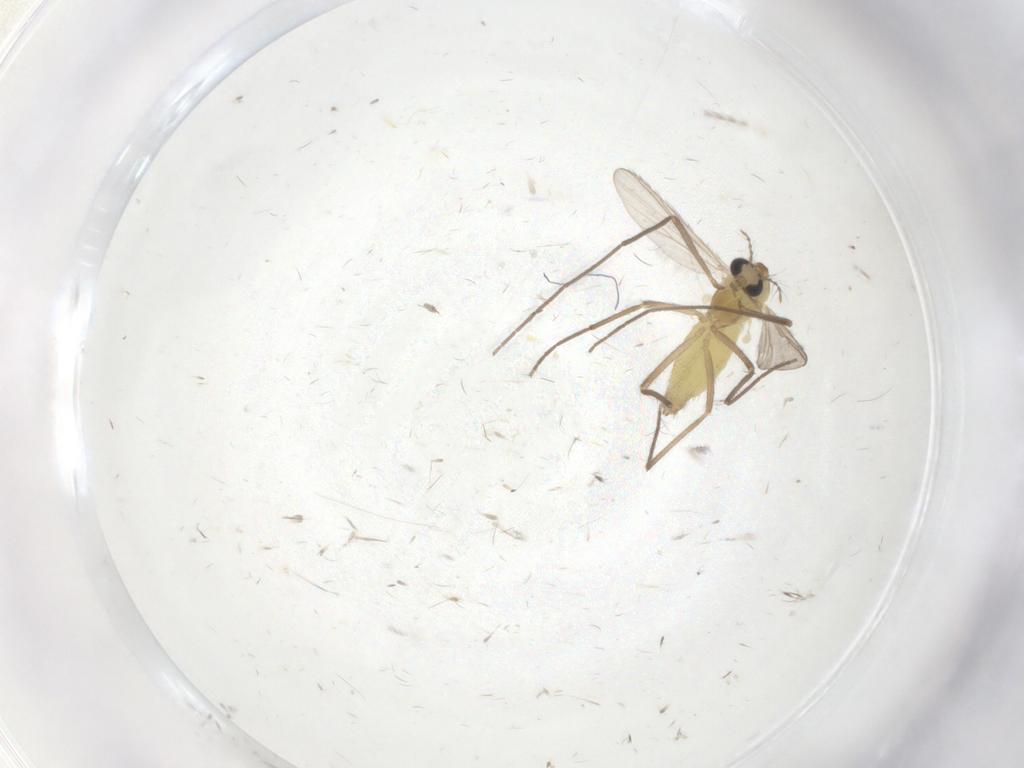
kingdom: Animalia
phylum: Arthropoda
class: Insecta
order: Diptera
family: Chironomidae
